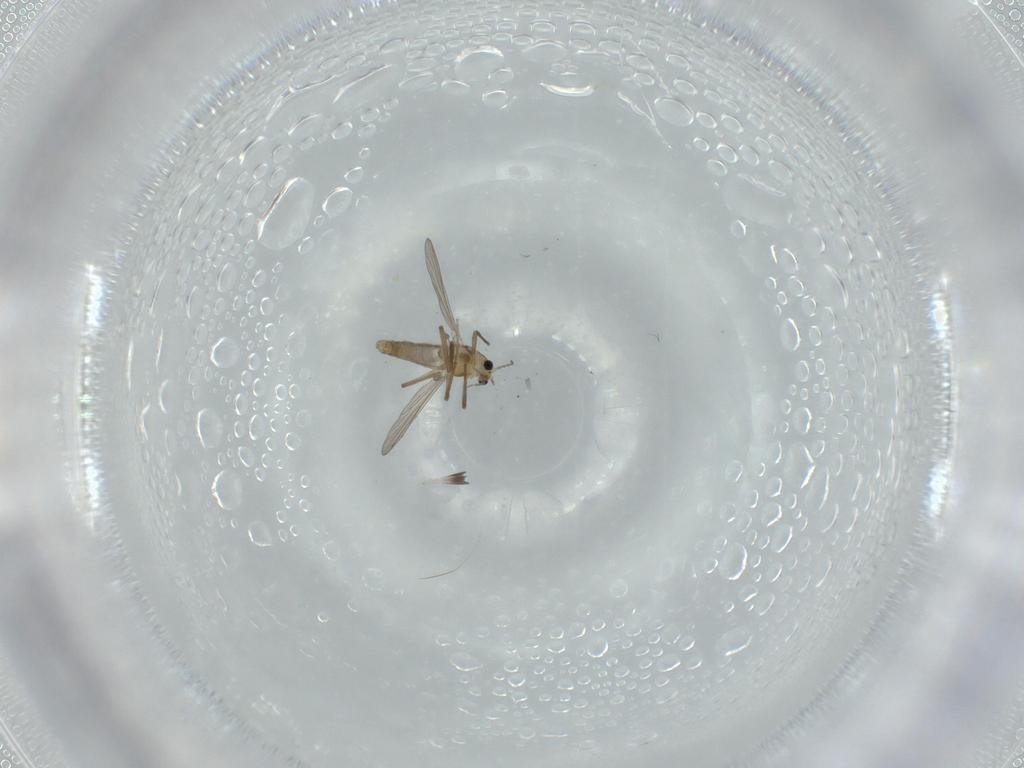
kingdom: Animalia
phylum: Arthropoda
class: Insecta
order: Diptera
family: Chironomidae
